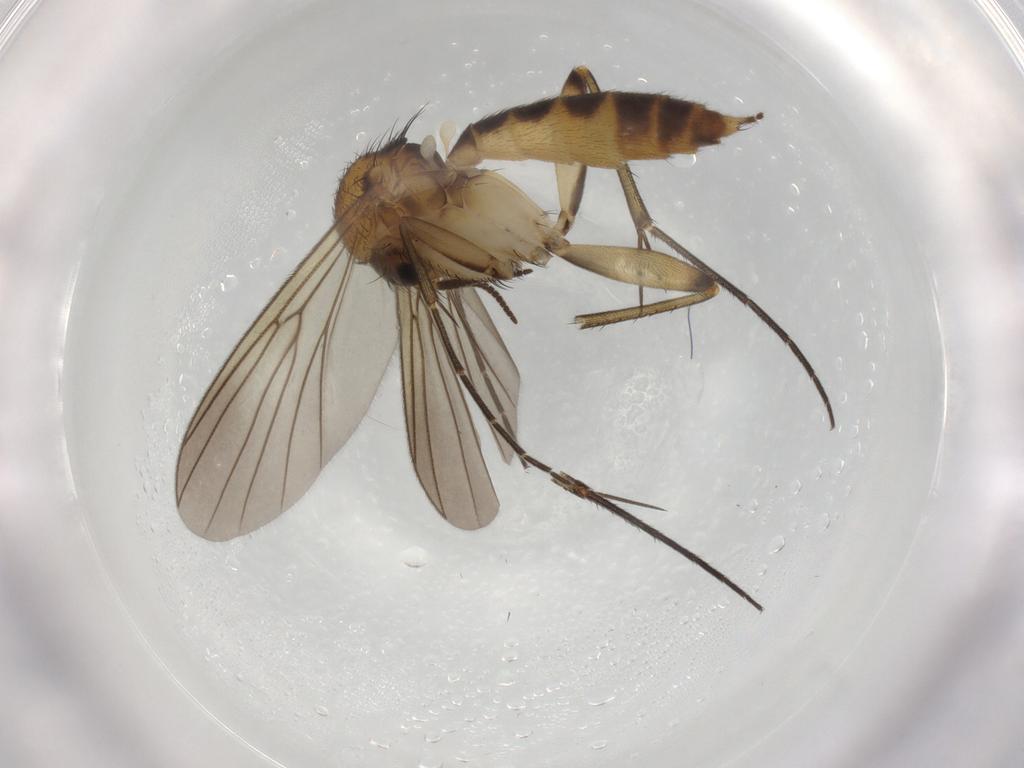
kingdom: Animalia
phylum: Arthropoda
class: Insecta
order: Diptera
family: Mycetophilidae
